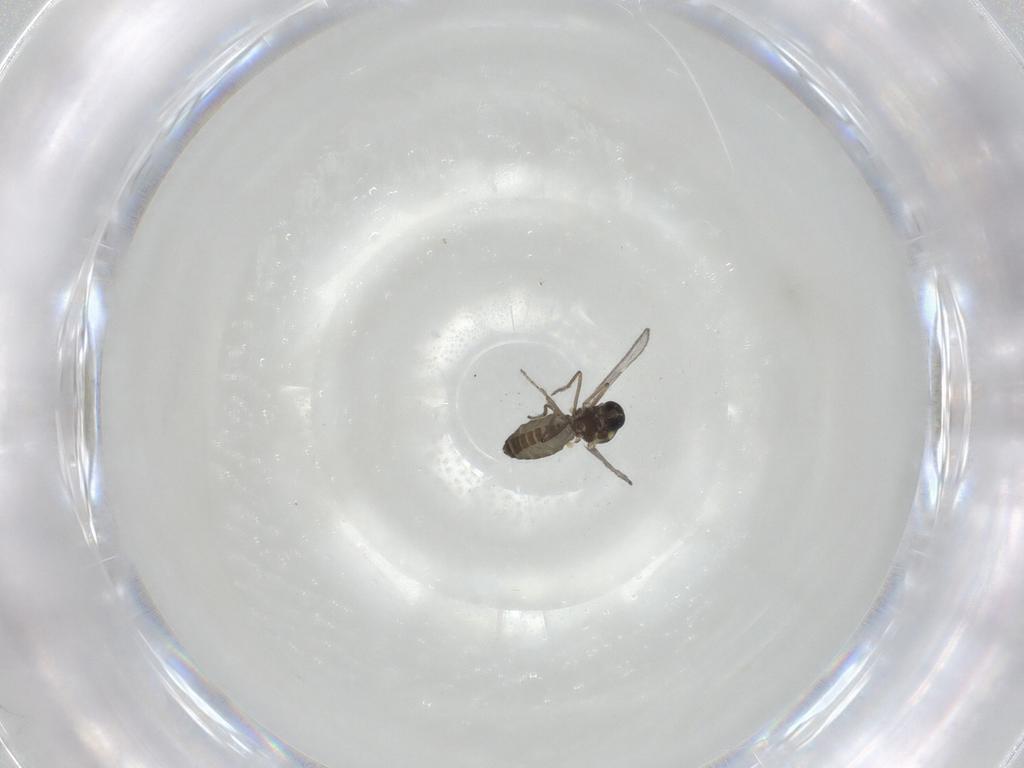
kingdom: Animalia
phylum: Arthropoda
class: Insecta
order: Diptera
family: Ceratopogonidae
